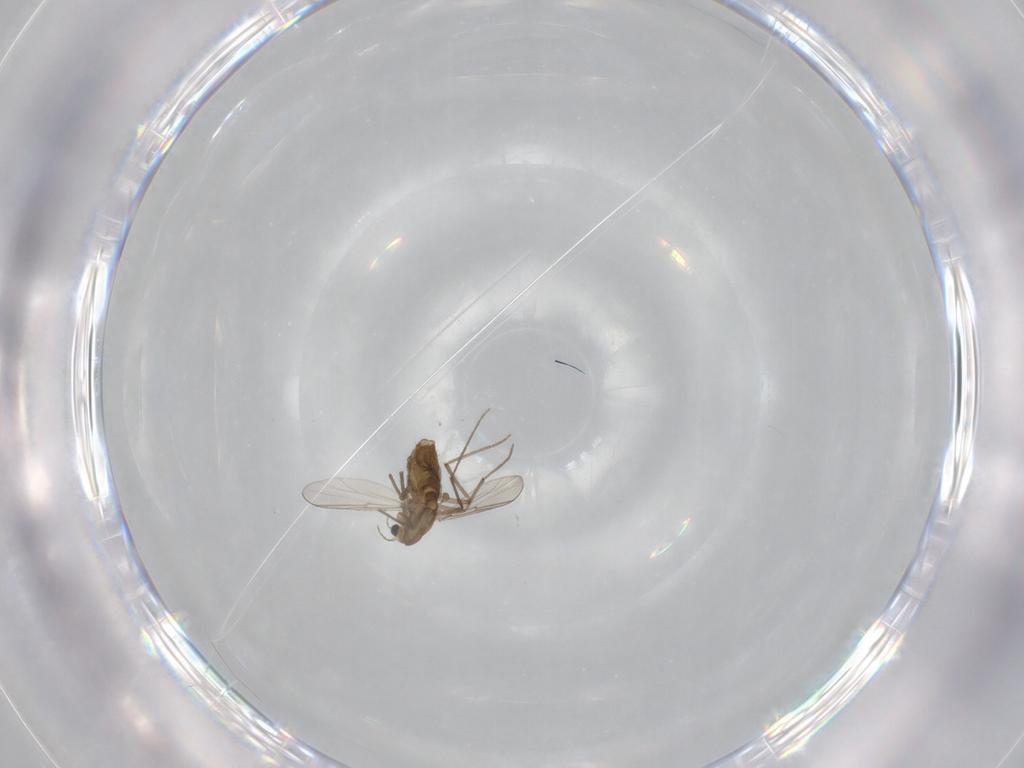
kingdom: Animalia
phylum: Arthropoda
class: Insecta
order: Diptera
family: Chironomidae
